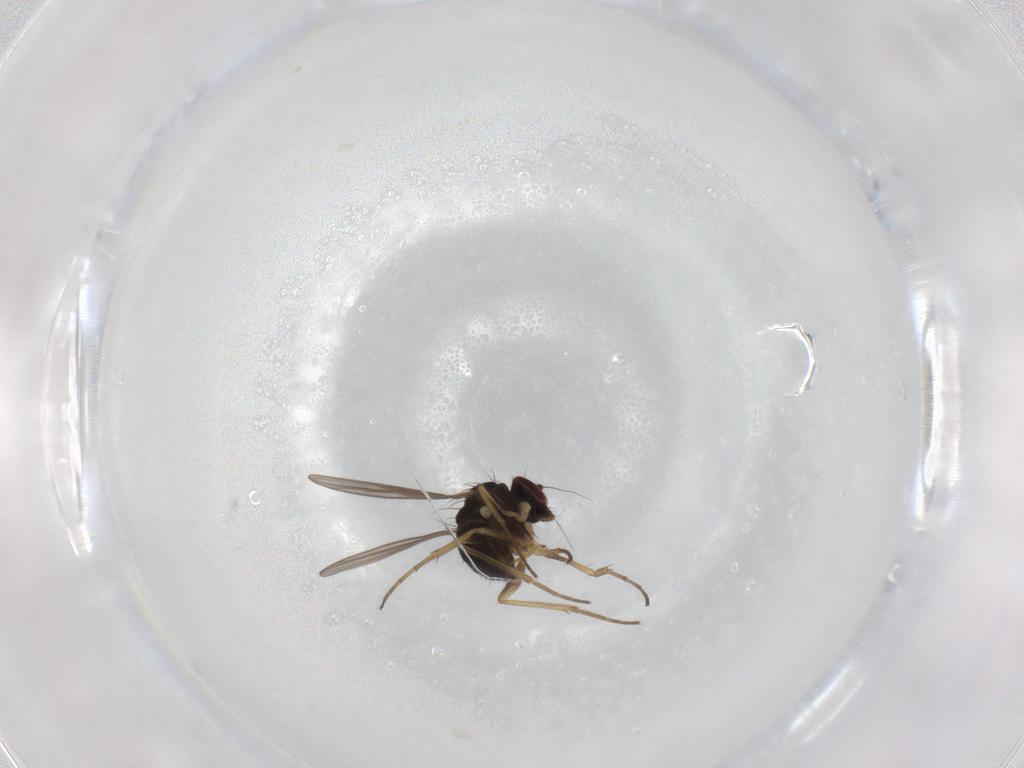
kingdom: Animalia
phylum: Arthropoda
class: Insecta
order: Diptera
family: Dolichopodidae
